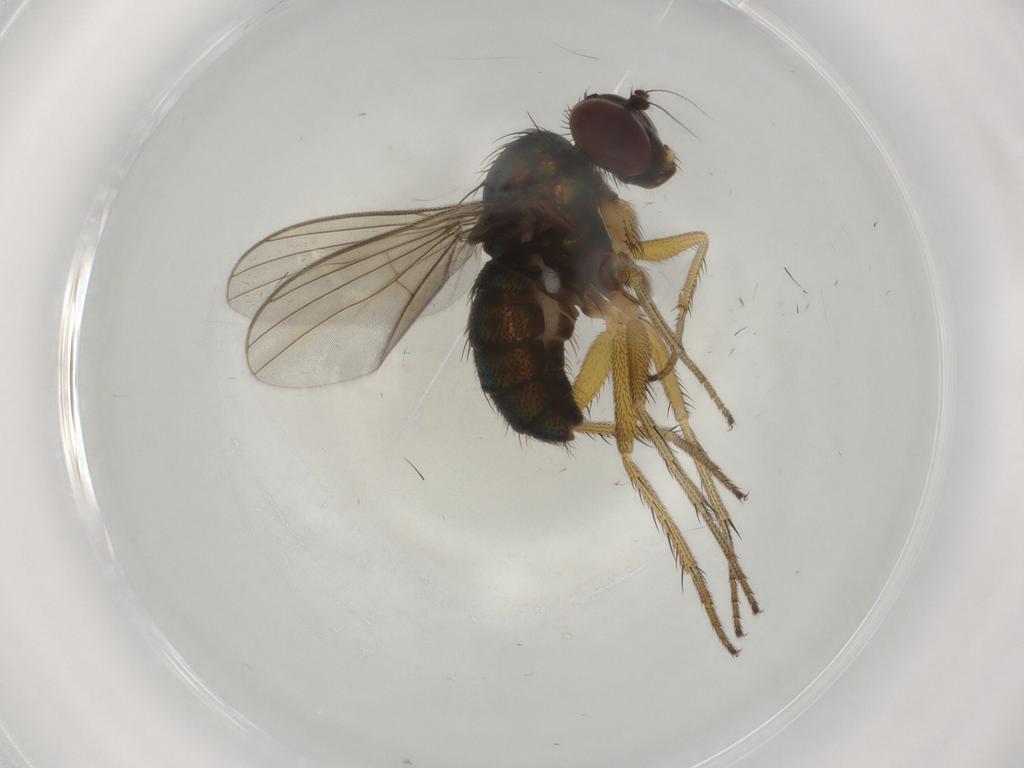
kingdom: Animalia
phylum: Arthropoda
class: Insecta
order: Diptera
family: Dolichopodidae
